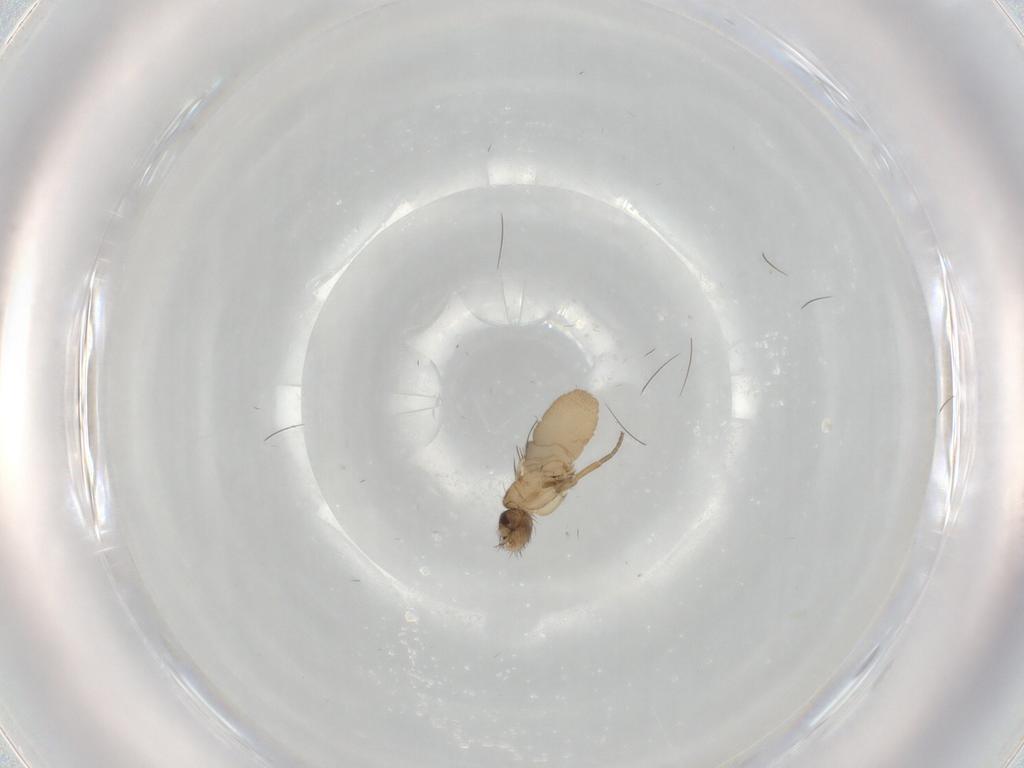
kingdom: Animalia
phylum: Arthropoda
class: Insecta
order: Diptera
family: Phoridae
